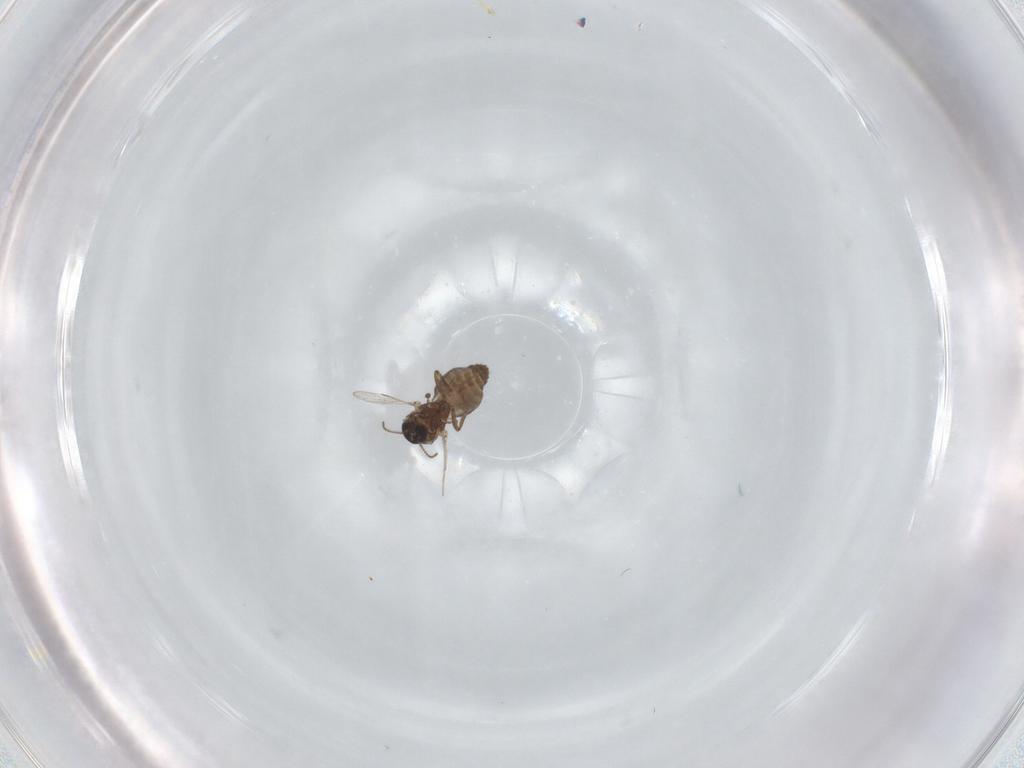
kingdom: Animalia
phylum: Arthropoda
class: Insecta
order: Diptera
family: Ceratopogonidae
